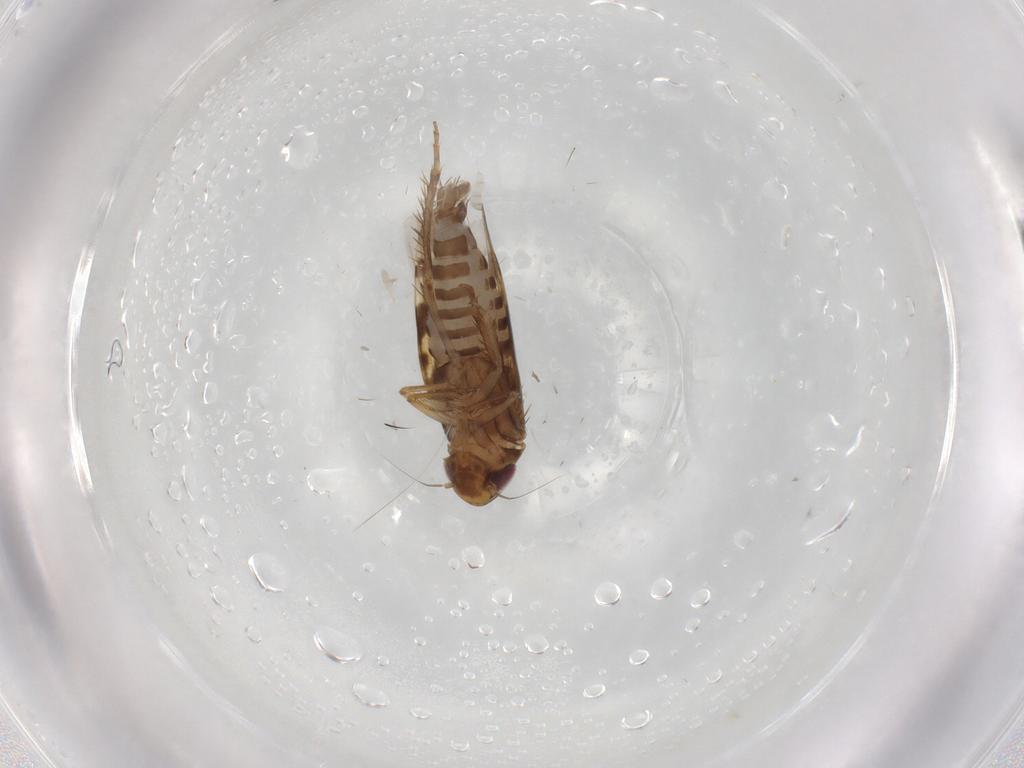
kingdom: Animalia
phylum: Arthropoda
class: Insecta
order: Hemiptera
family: Cicadellidae
